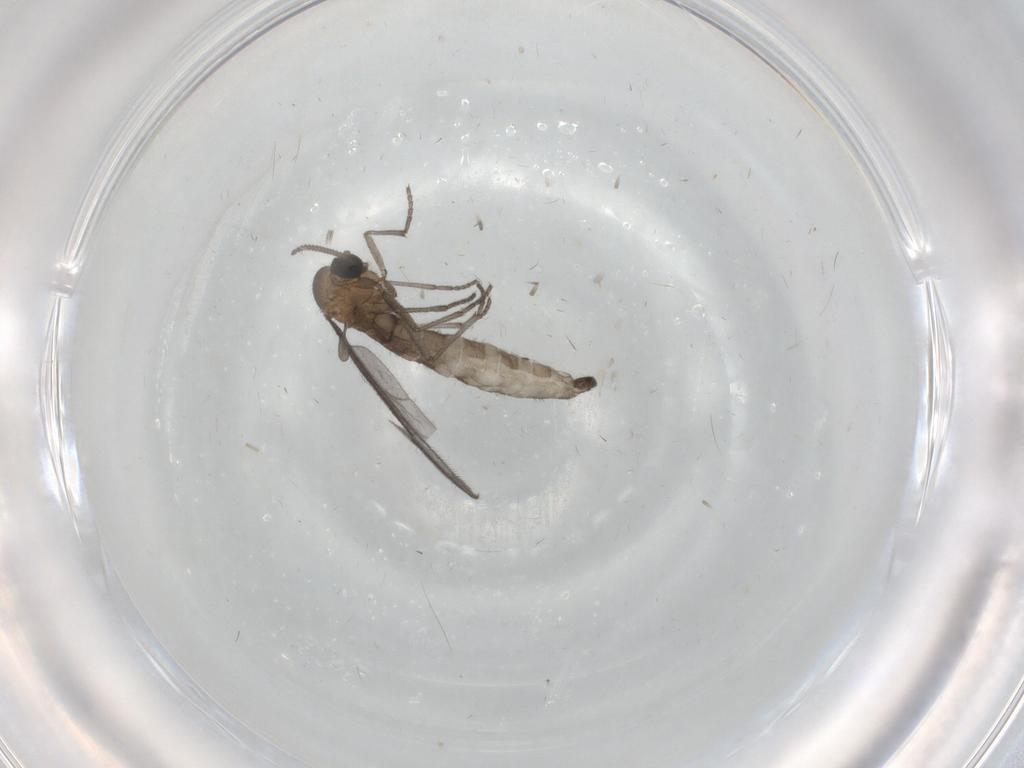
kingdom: Animalia
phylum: Arthropoda
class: Insecta
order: Diptera
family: Sciaridae
